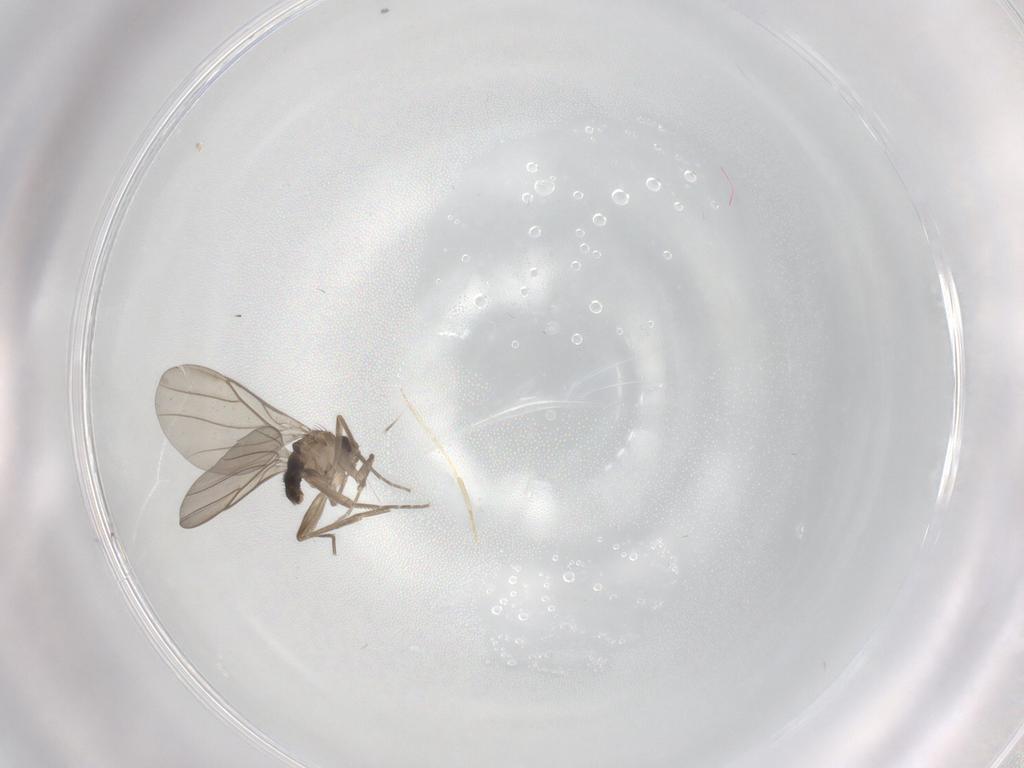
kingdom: Animalia
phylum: Arthropoda
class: Insecta
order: Diptera
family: Phoridae
